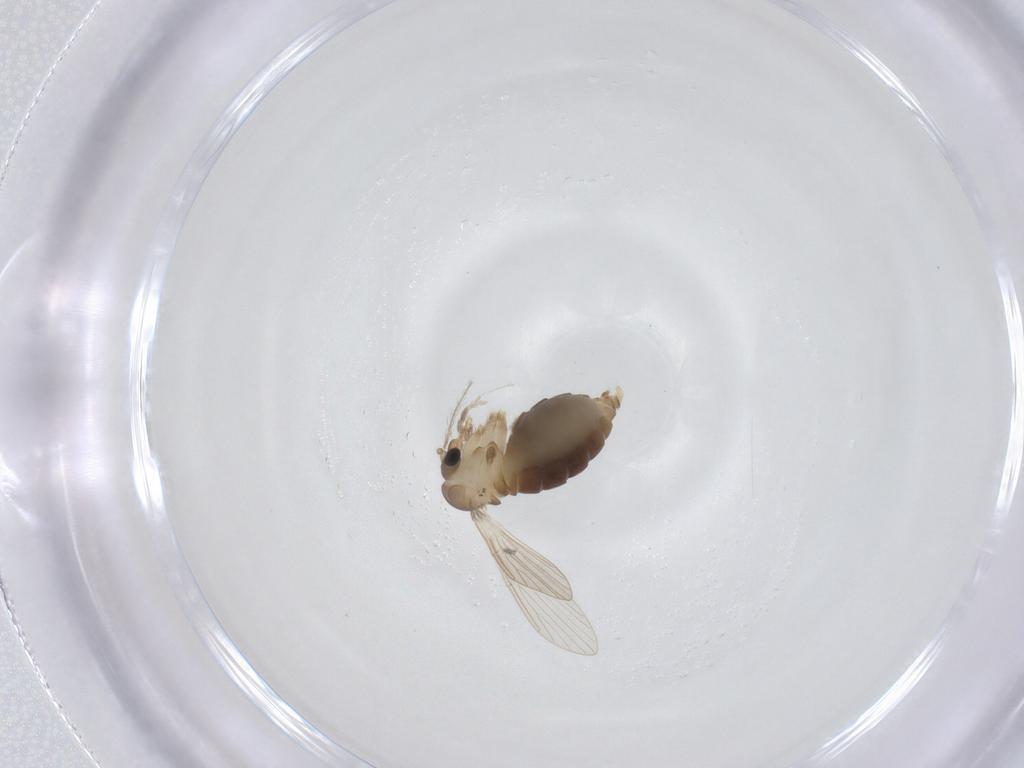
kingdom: Animalia
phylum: Arthropoda
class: Insecta
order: Diptera
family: Psychodidae
